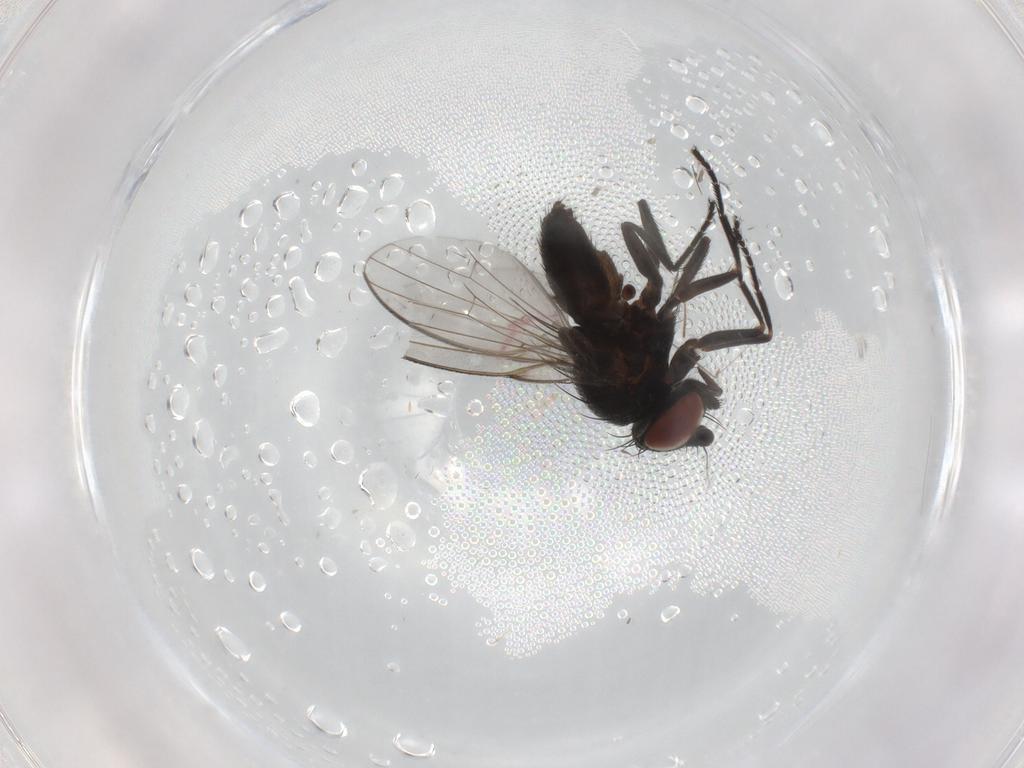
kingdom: Animalia
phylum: Arthropoda
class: Insecta
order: Diptera
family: Milichiidae
